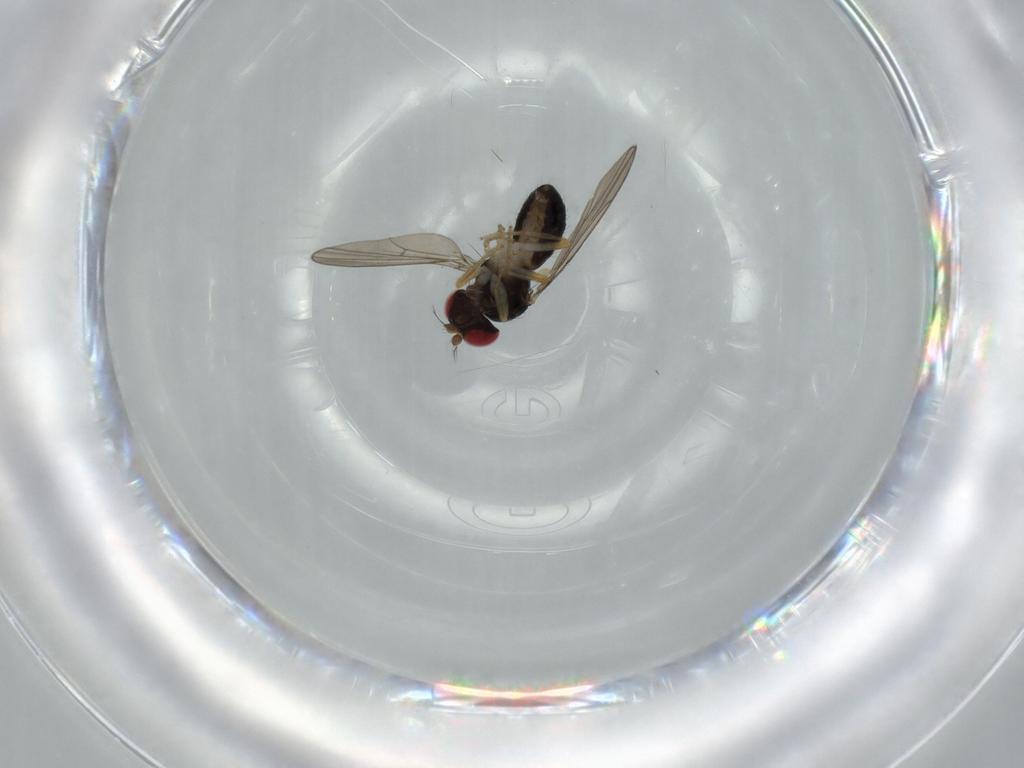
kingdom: Animalia
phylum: Arthropoda
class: Insecta
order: Diptera
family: Drosophilidae
